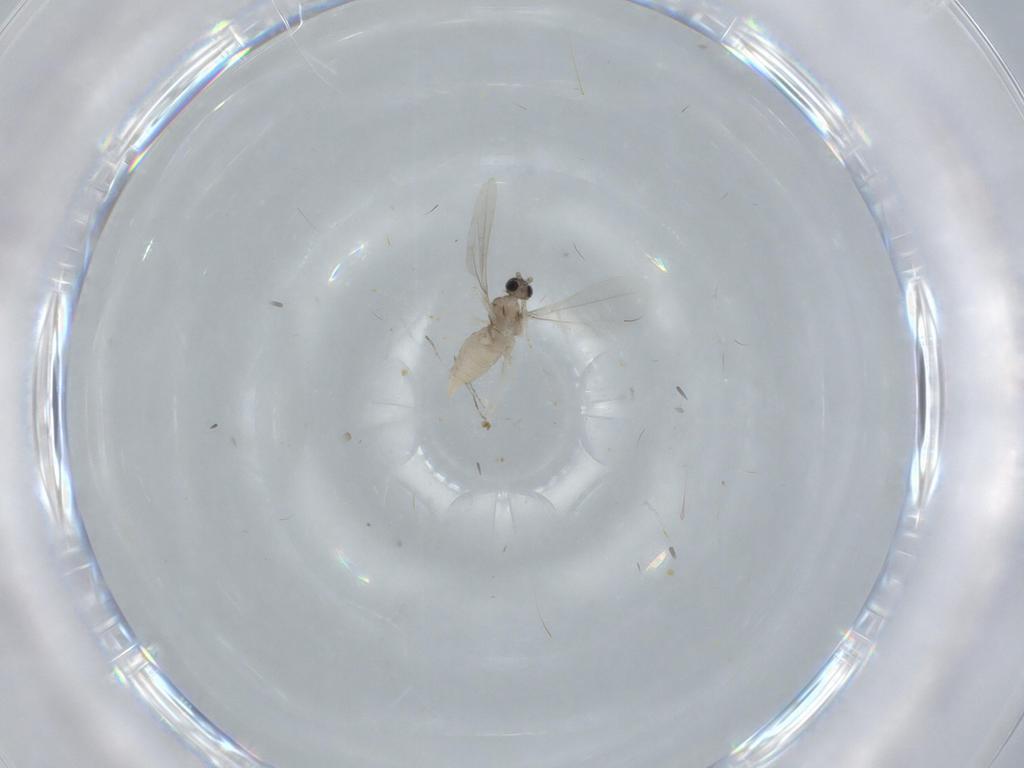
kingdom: Animalia
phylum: Arthropoda
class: Insecta
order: Diptera
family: Cecidomyiidae
